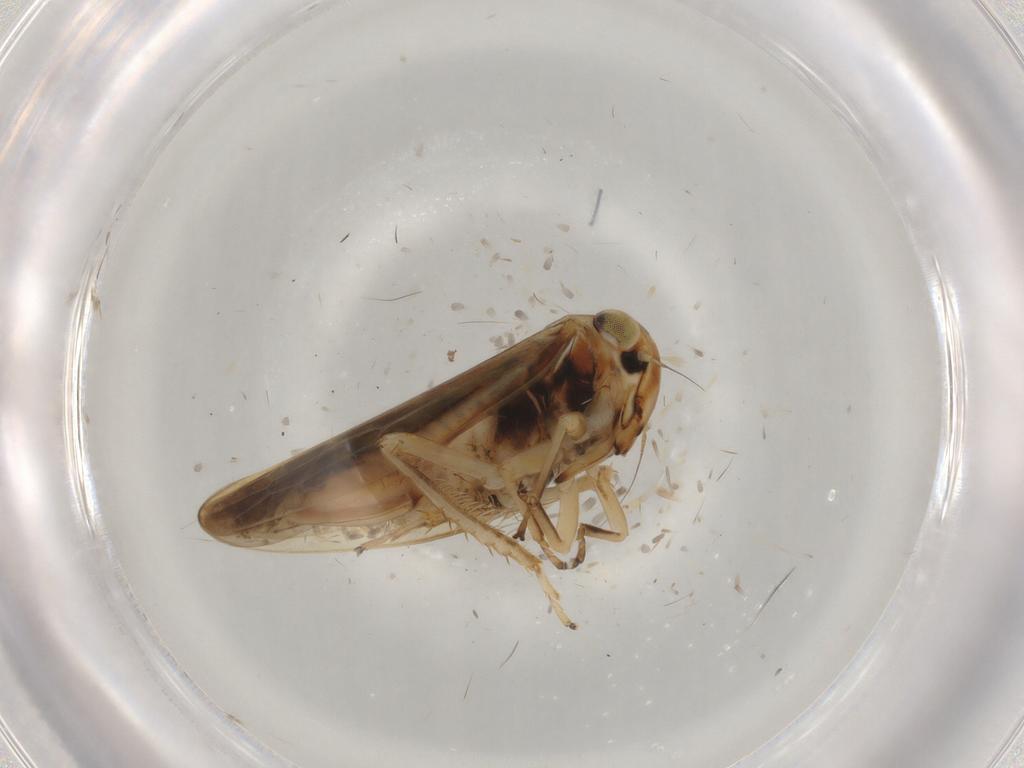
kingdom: Animalia
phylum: Arthropoda
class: Insecta
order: Hemiptera
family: Cicadellidae
